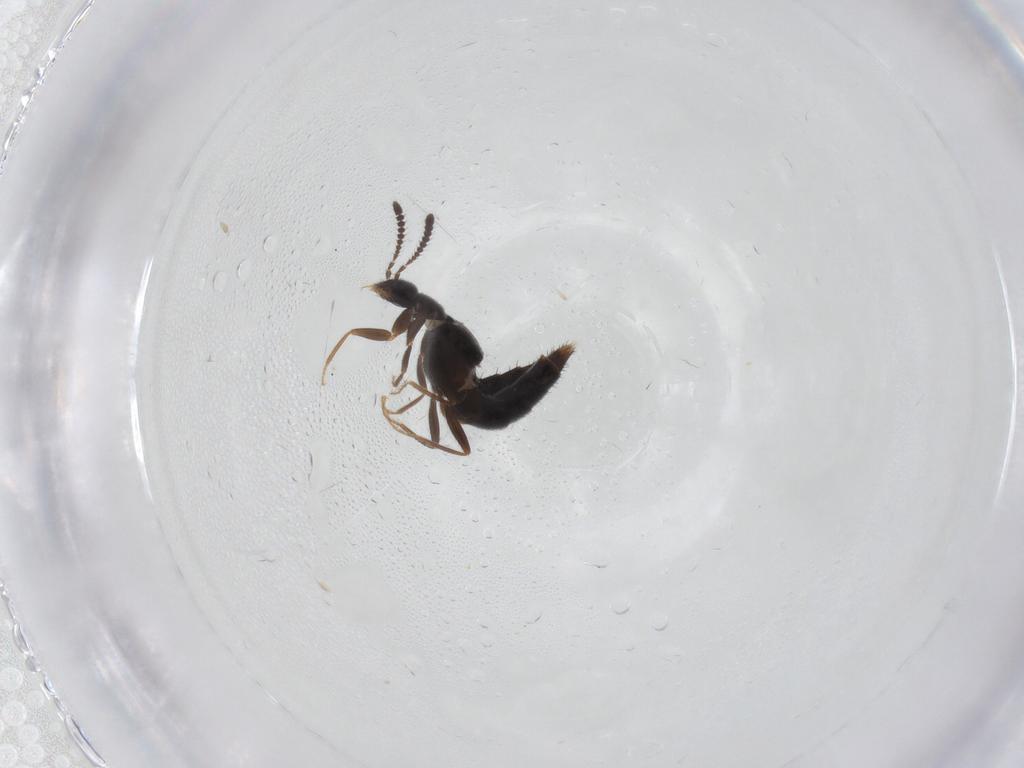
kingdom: Animalia
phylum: Arthropoda
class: Insecta
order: Coleoptera
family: Staphylinidae
